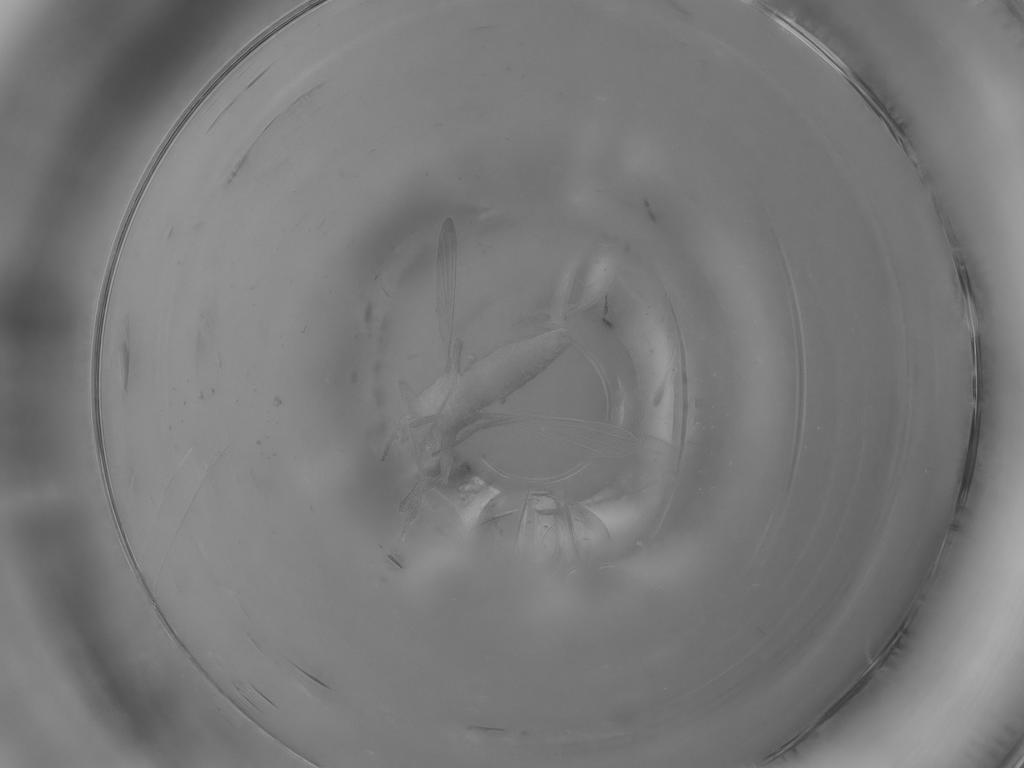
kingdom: Animalia
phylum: Arthropoda
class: Insecta
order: Diptera
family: Ceratopogonidae
